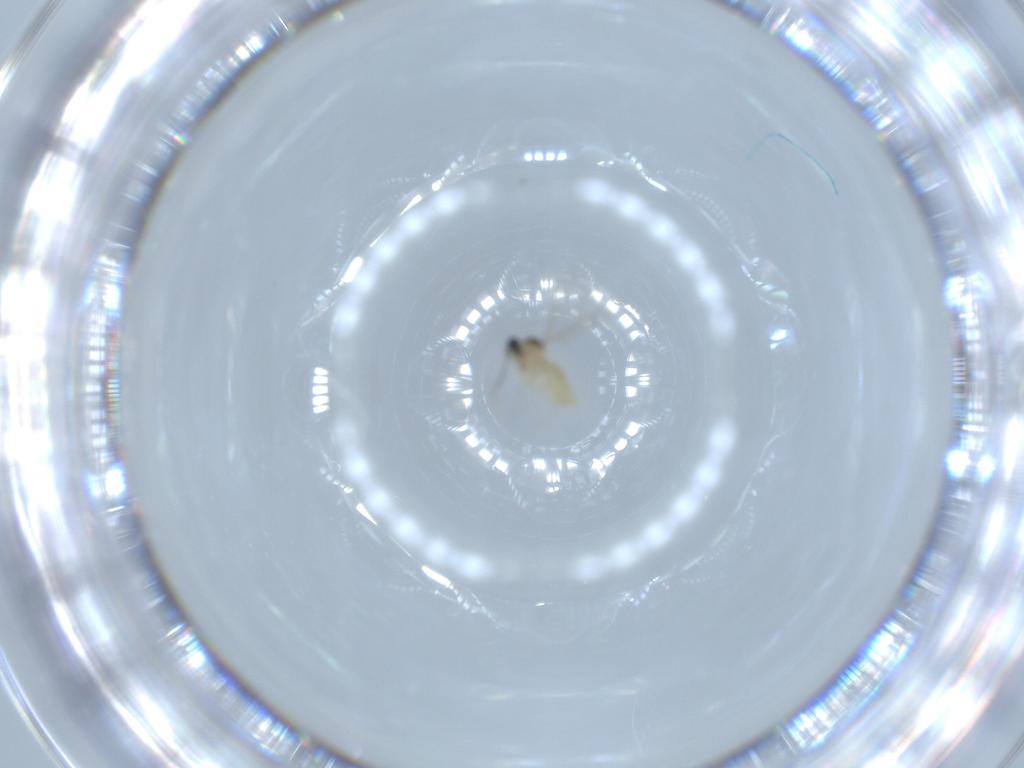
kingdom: Animalia
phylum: Arthropoda
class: Insecta
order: Diptera
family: Cecidomyiidae
